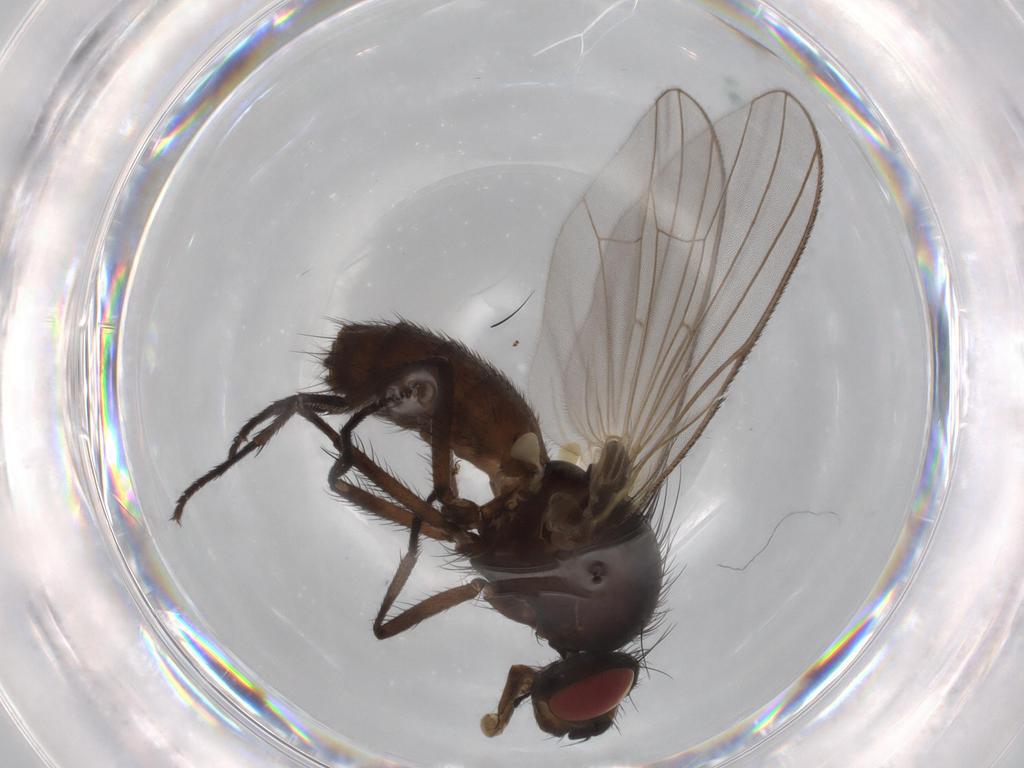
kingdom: Animalia
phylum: Arthropoda
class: Insecta
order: Diptera
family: Fannia
